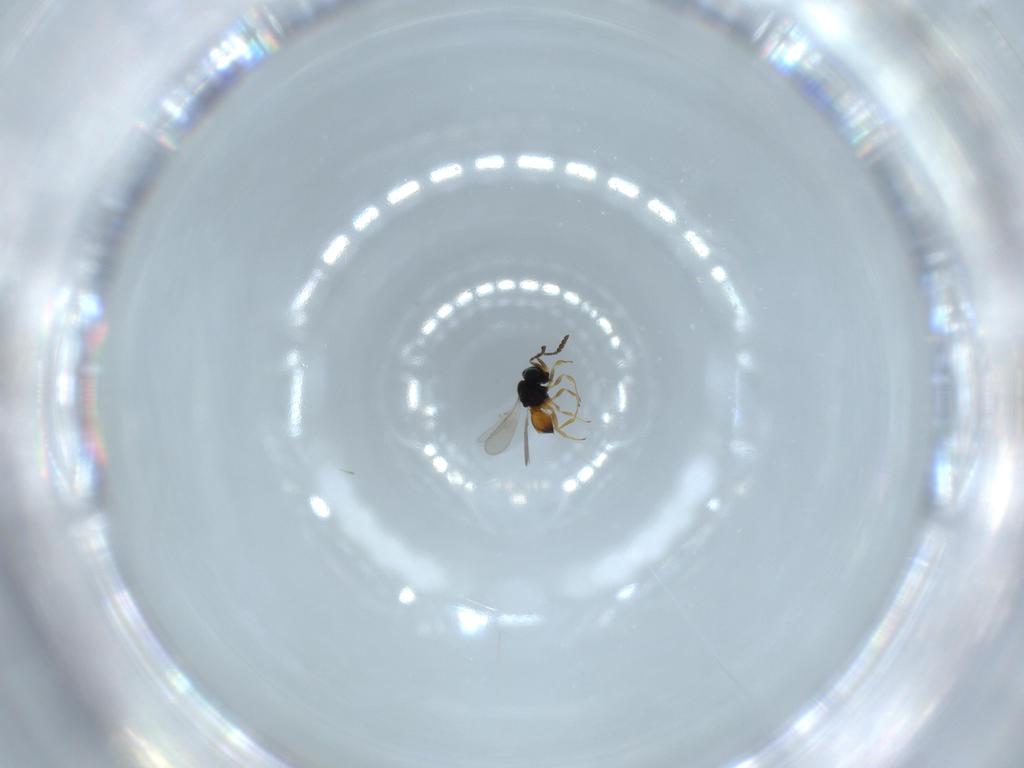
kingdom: Animalia
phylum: Arthropoda
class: Insecta
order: Hymenoptera
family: Scelionidae
